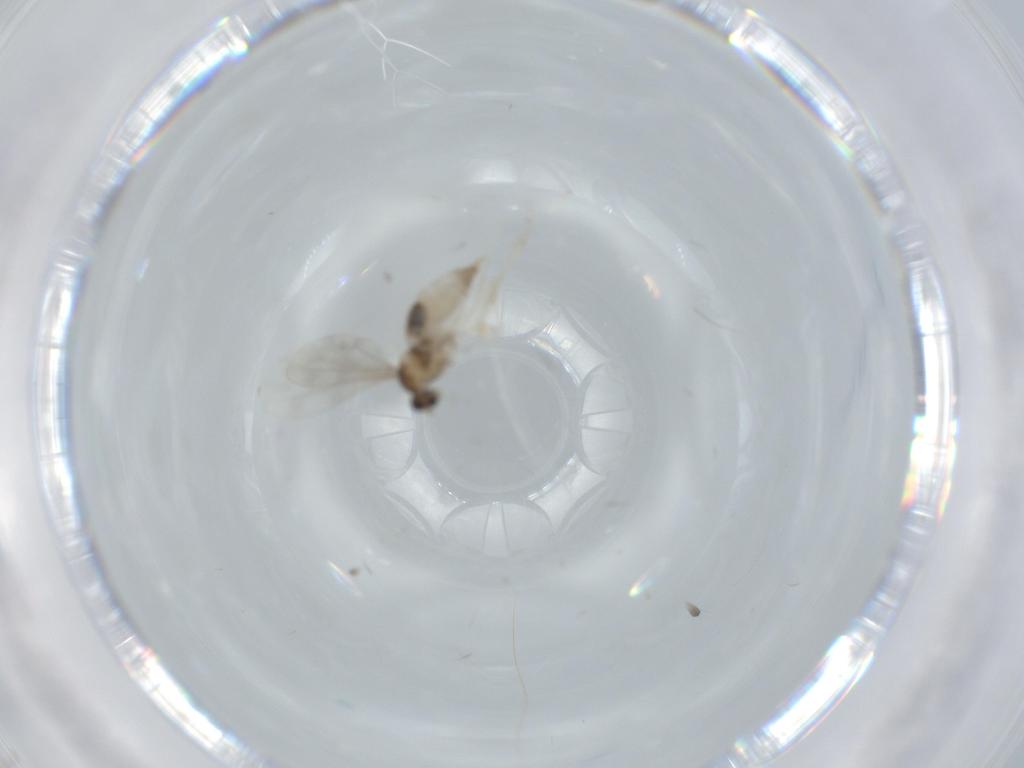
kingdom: Animalia
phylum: Arthropoda
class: Insecta
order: Diptera
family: Cecidomyiidae
